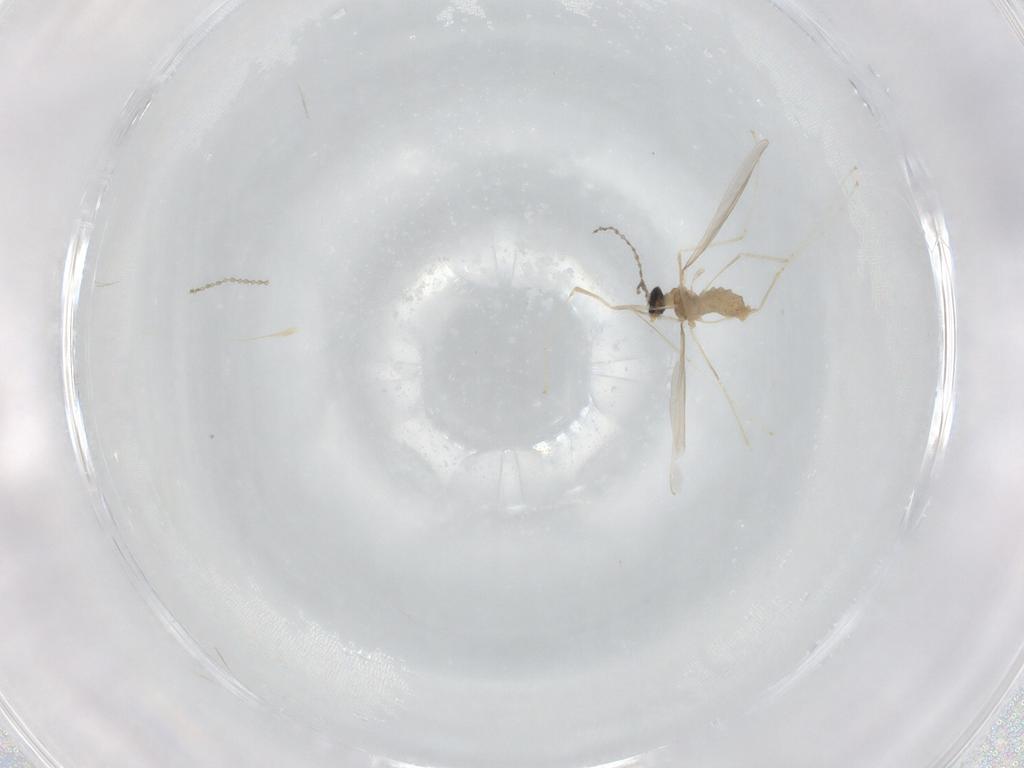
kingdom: Animalia
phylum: Arthropoda
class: Insecta
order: Diptera
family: Cecidomyiidae
